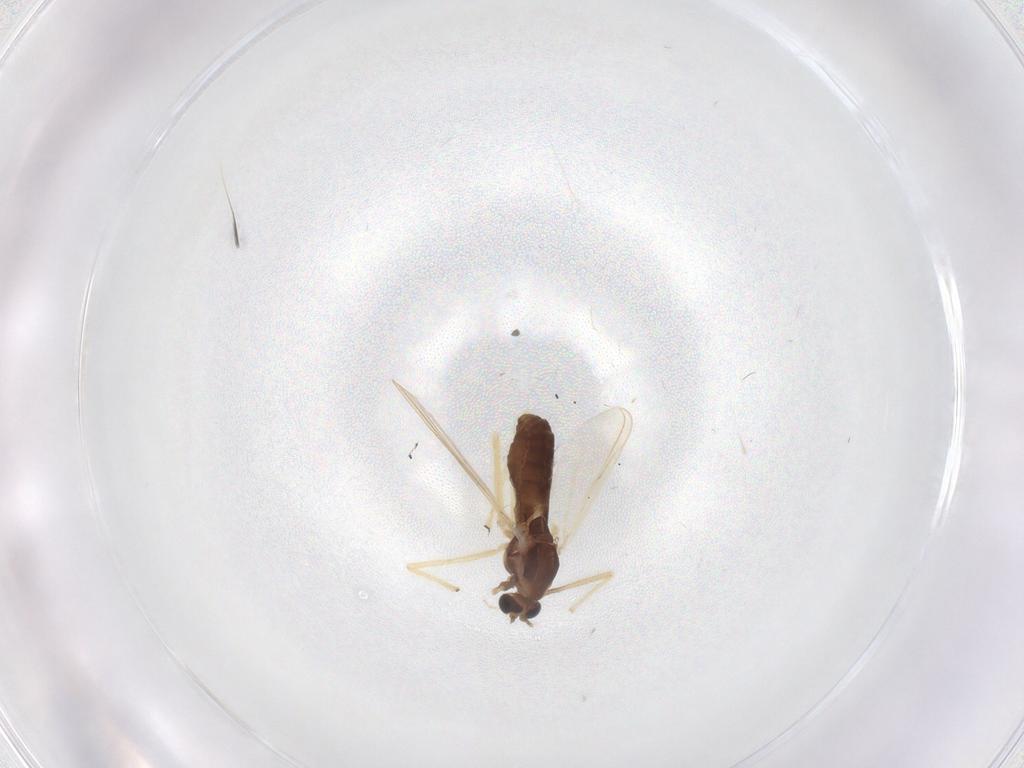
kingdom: Animalia
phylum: Arthropoda
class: Insecta
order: Diptera
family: Chironomidae
